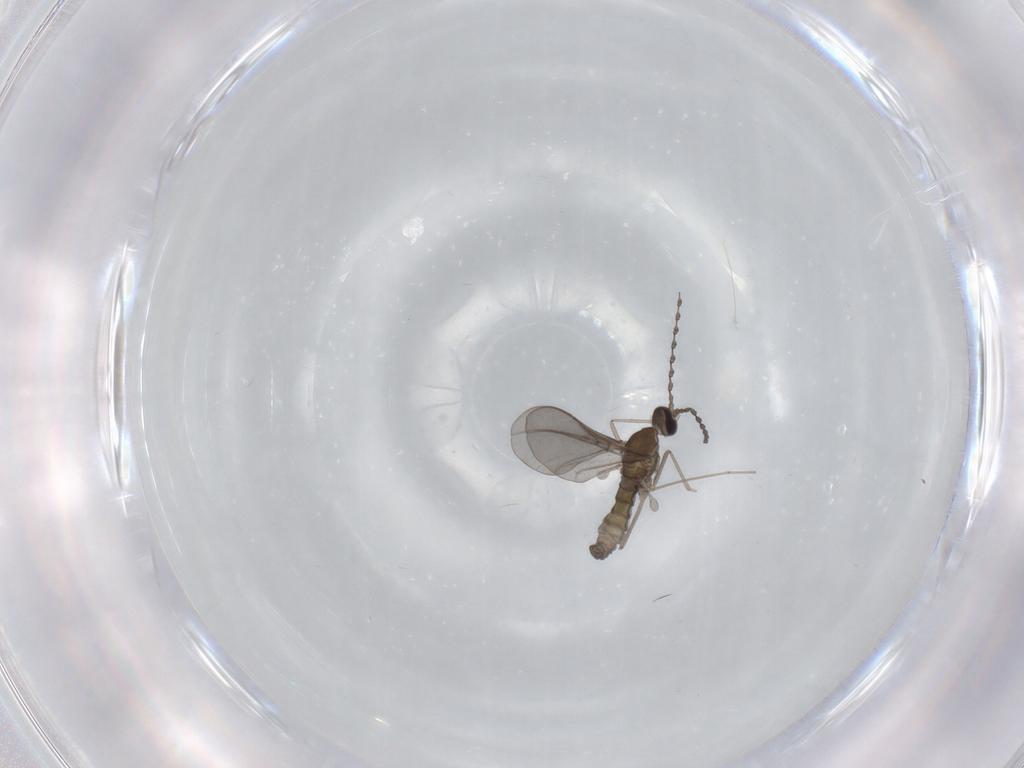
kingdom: Animalia
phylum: Arthropoda
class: Insecta
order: Diptera
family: Cecidomyiidae
